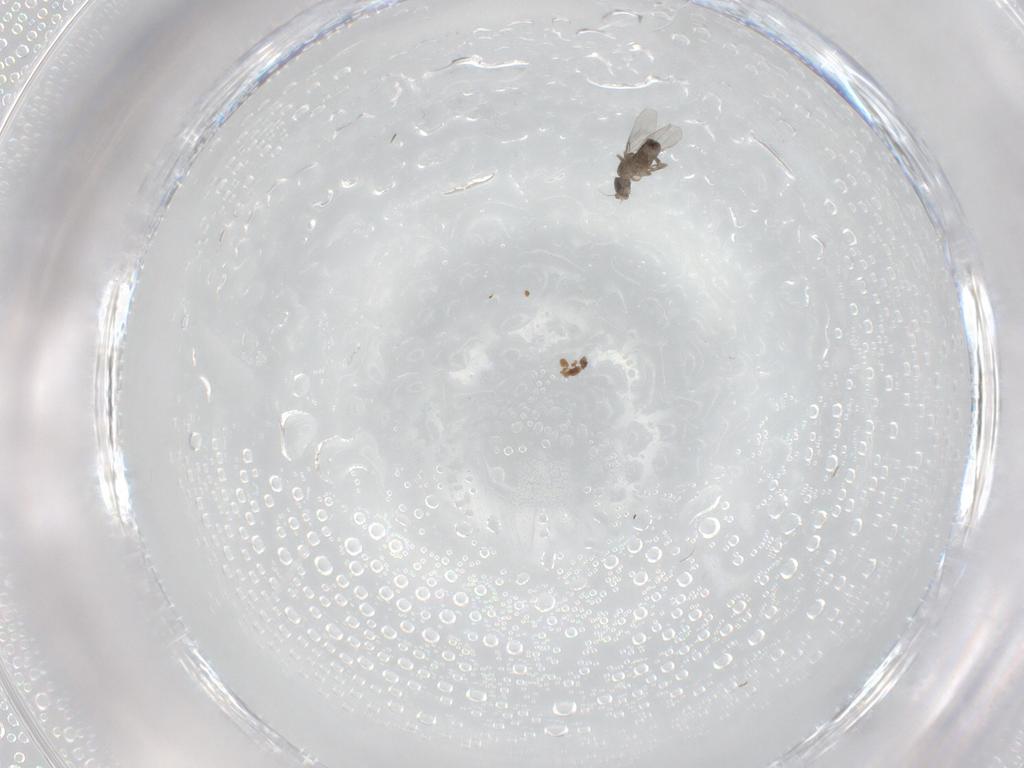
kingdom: Animalia
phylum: Arthropoda
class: Insecta
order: Diptera
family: Phoridae
